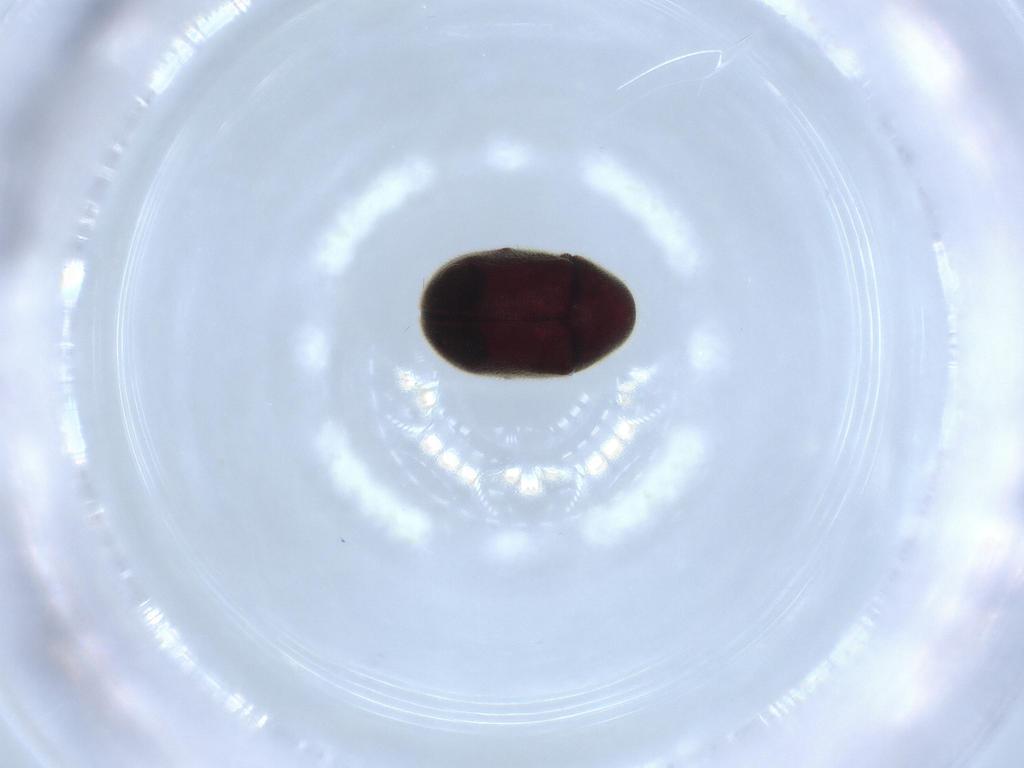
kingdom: Animalia
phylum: Arthropoda
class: Insecta
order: Coleoptera
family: Ptinidae
